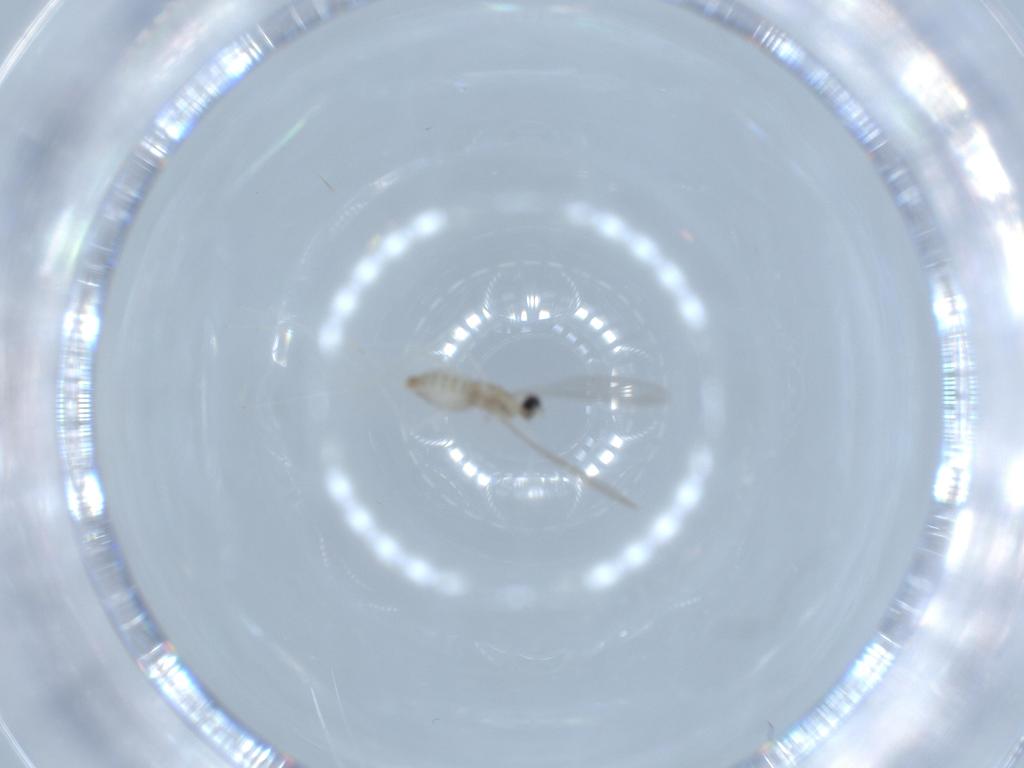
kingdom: Animalia
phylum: Arthropoda
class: Insecta
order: Diptera
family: Cecidomyiidae
